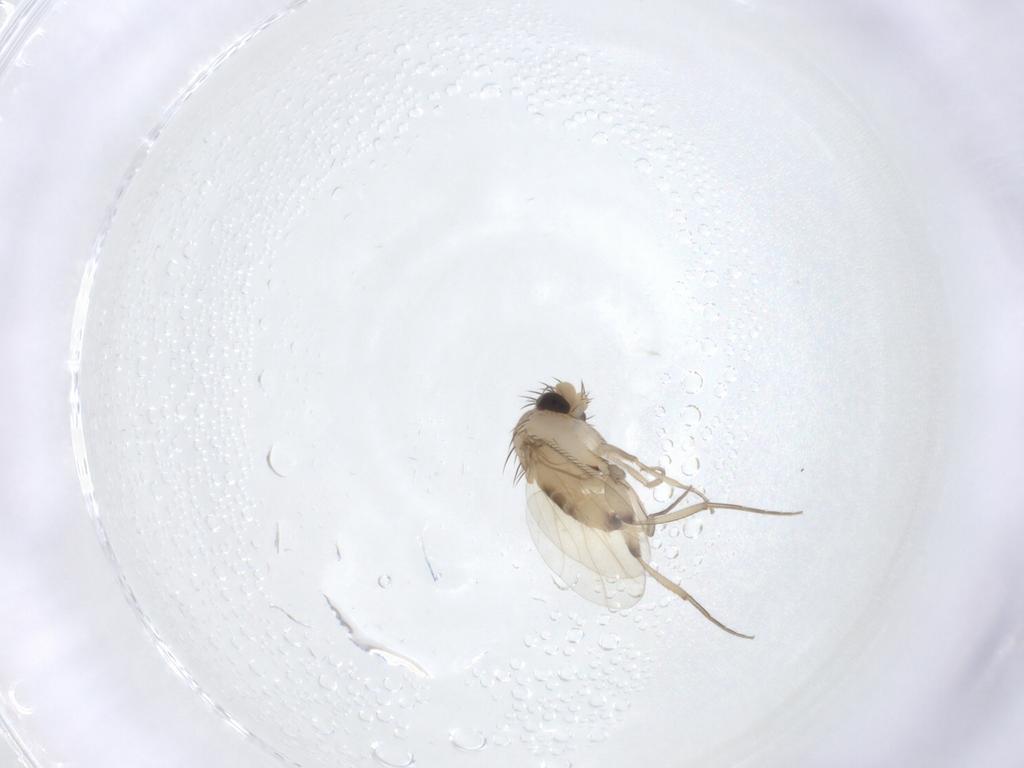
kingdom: Animalia
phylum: Arthropoda
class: Insecta
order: Diptera
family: Phoridae
